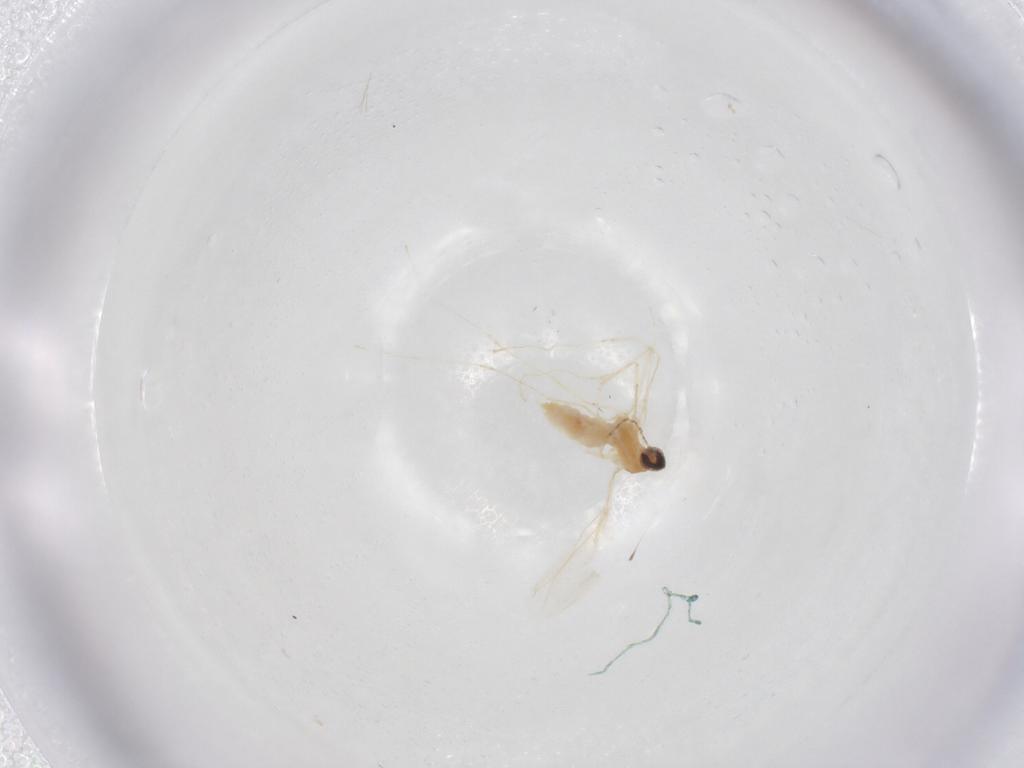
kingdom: Animalia
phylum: Arthropoda
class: Insecta
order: Diptera
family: Cecidomyiidae
